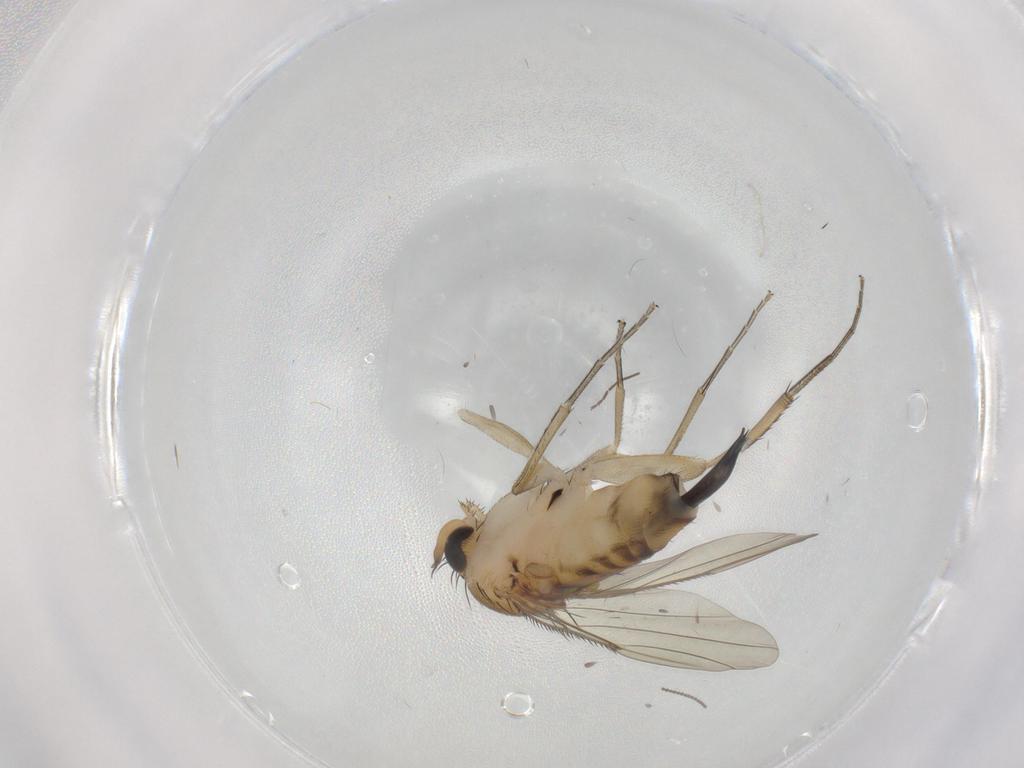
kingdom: Animalia
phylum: Arthropoda
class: Insecta
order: Diptera
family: Phoridae
